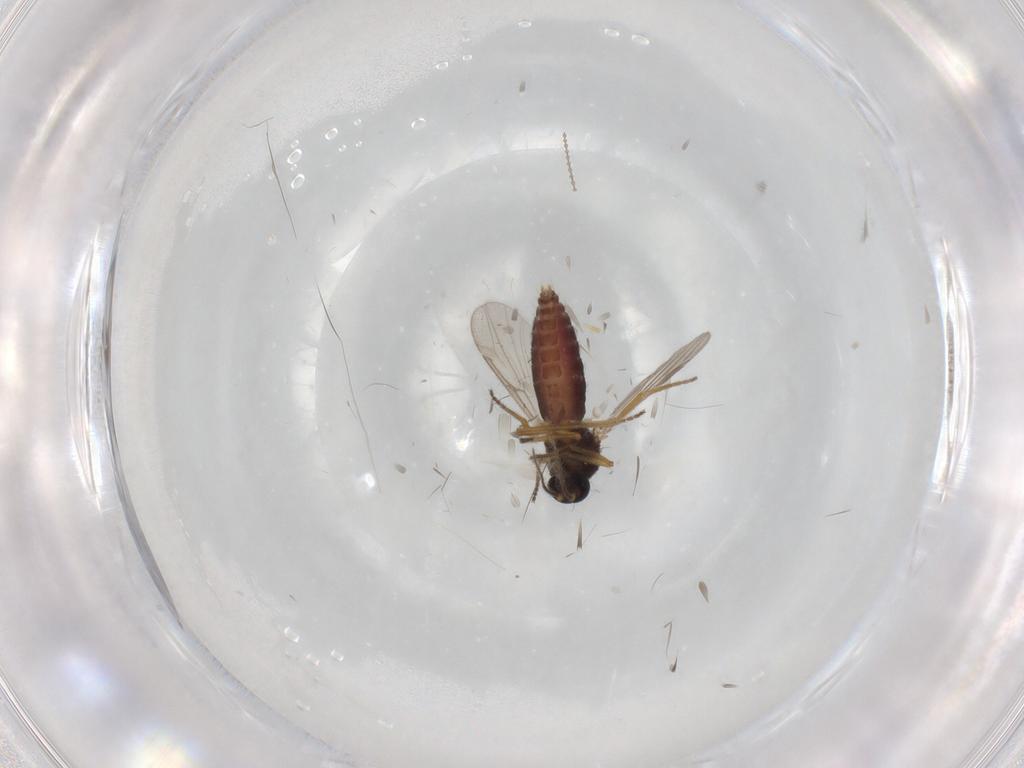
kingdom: Animalia
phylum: Arthropoda
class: Insecta
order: Diptera
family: Ceratopogonidae
